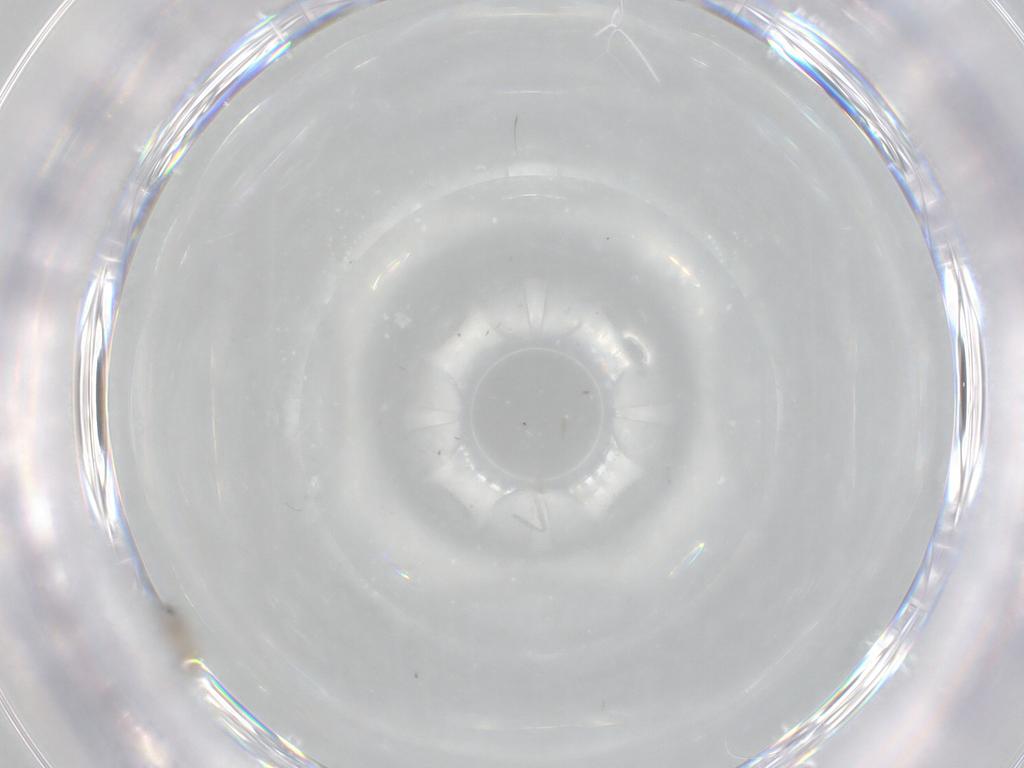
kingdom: Animalia
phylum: Arthropoda
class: Insecta
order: Diptera
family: Cecidomyiidae
